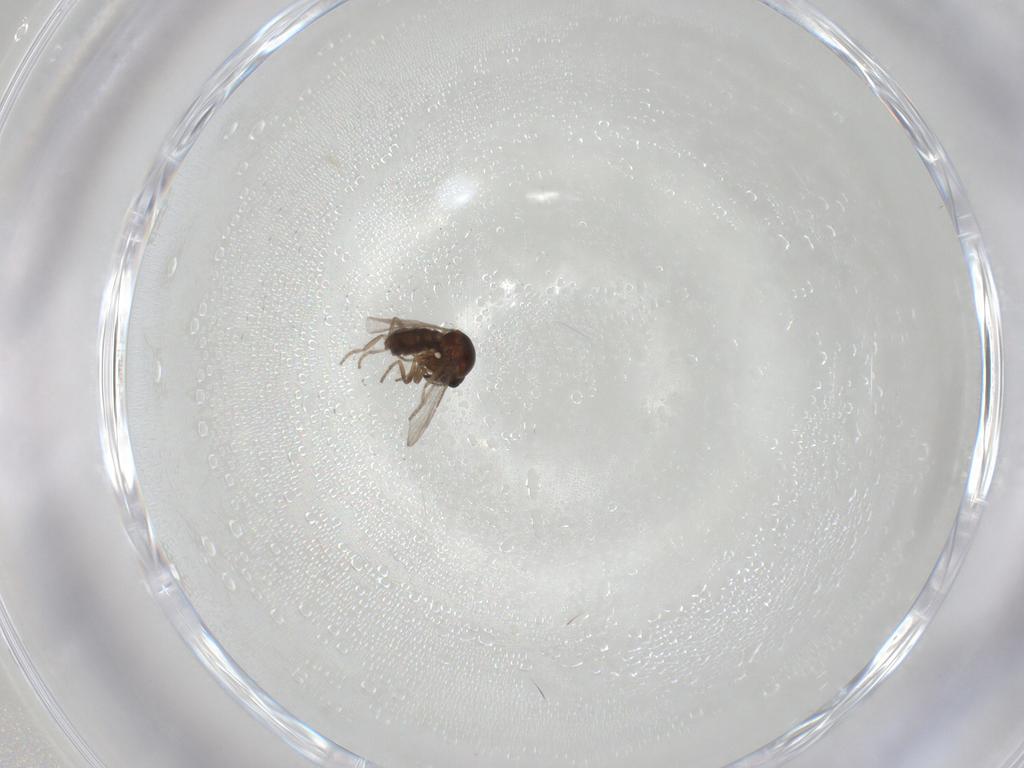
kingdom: Animalia
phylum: Arthropoda
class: Insecta
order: Diptera
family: Ceratopogonidae
